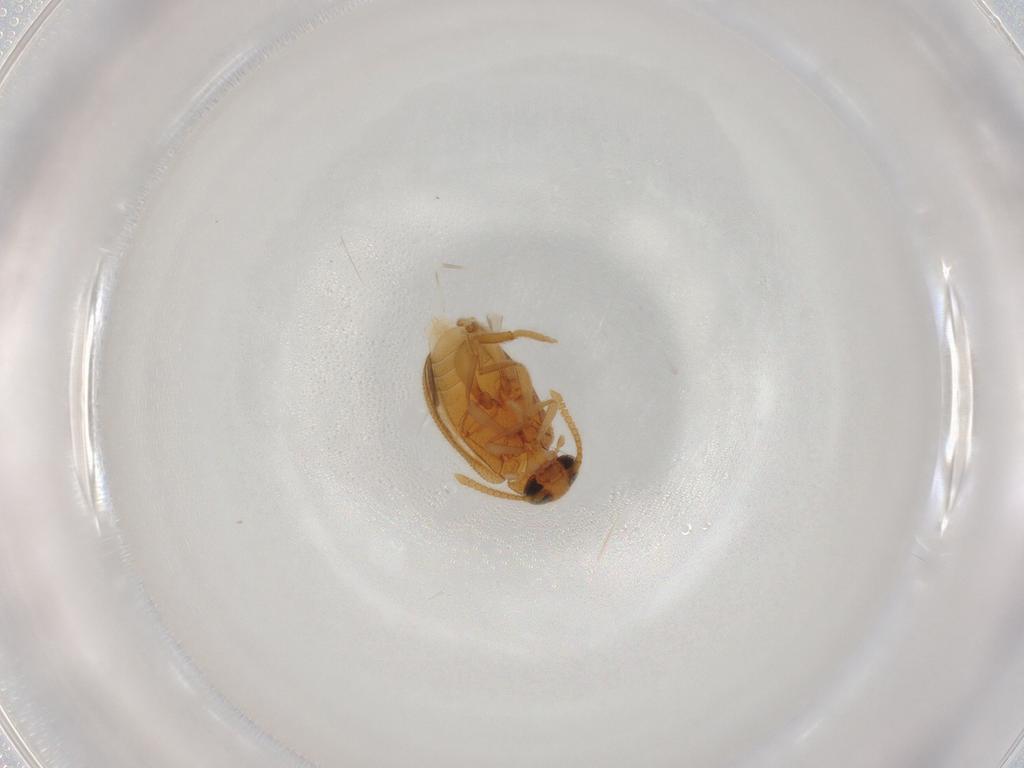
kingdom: Animalia
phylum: Arthropoda
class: Insecta
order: Coleoptera
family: Aderidae
